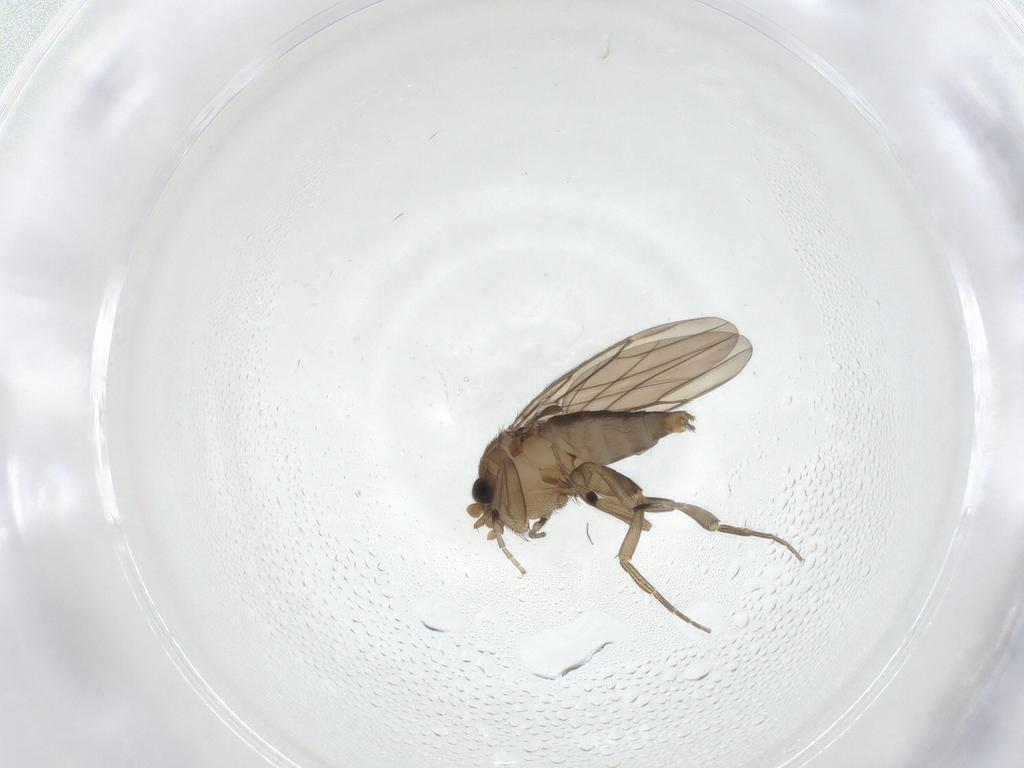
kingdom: Animalia
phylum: Arthropoda
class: Insecta
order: Diptera
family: Phoridae
